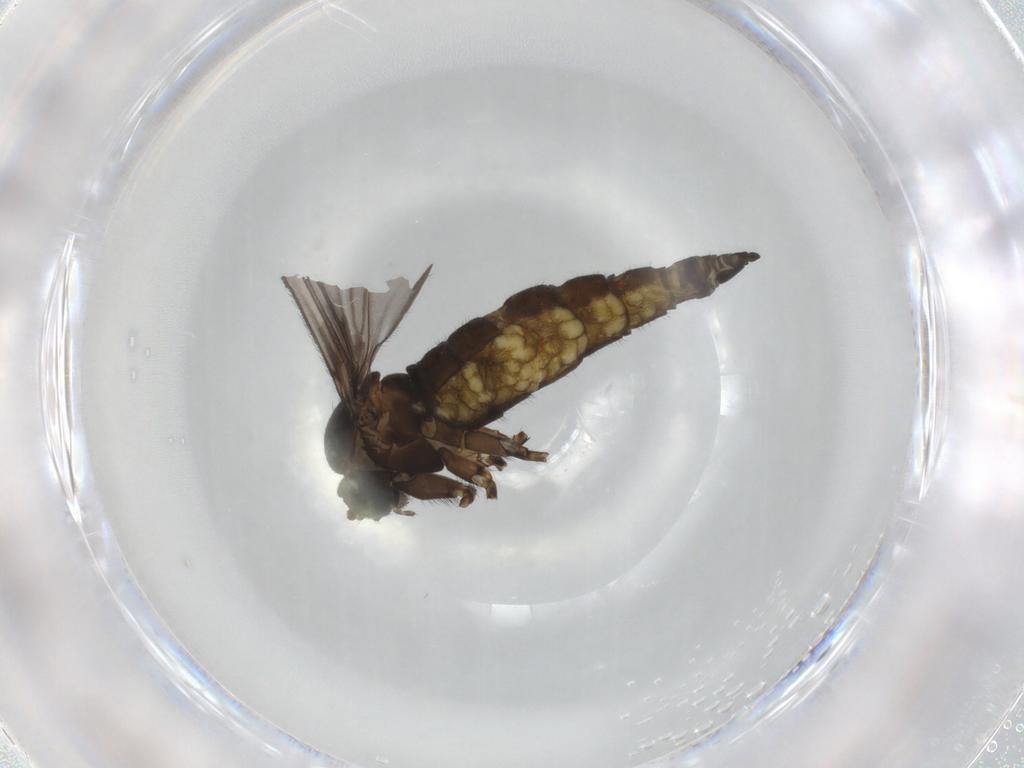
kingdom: Animalia
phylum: Arthropoda
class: Insecta
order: Diptera
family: Sciaridae
